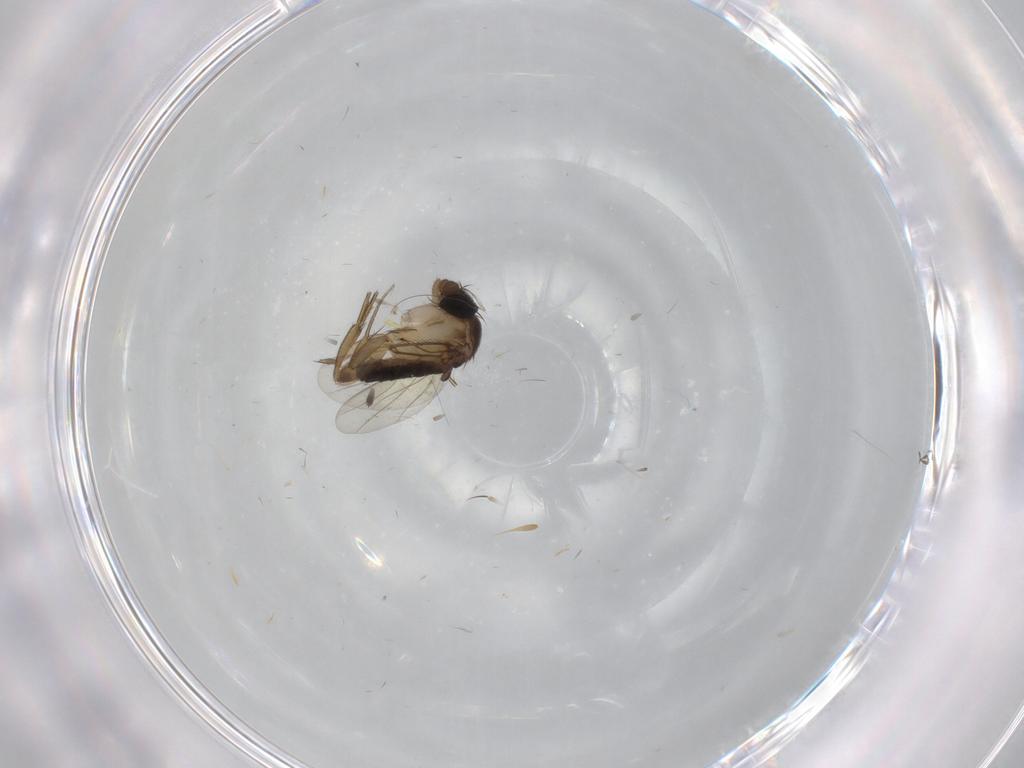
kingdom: Animalia
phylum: Arthropoda
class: Insecta
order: Diptera
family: Phoridae
